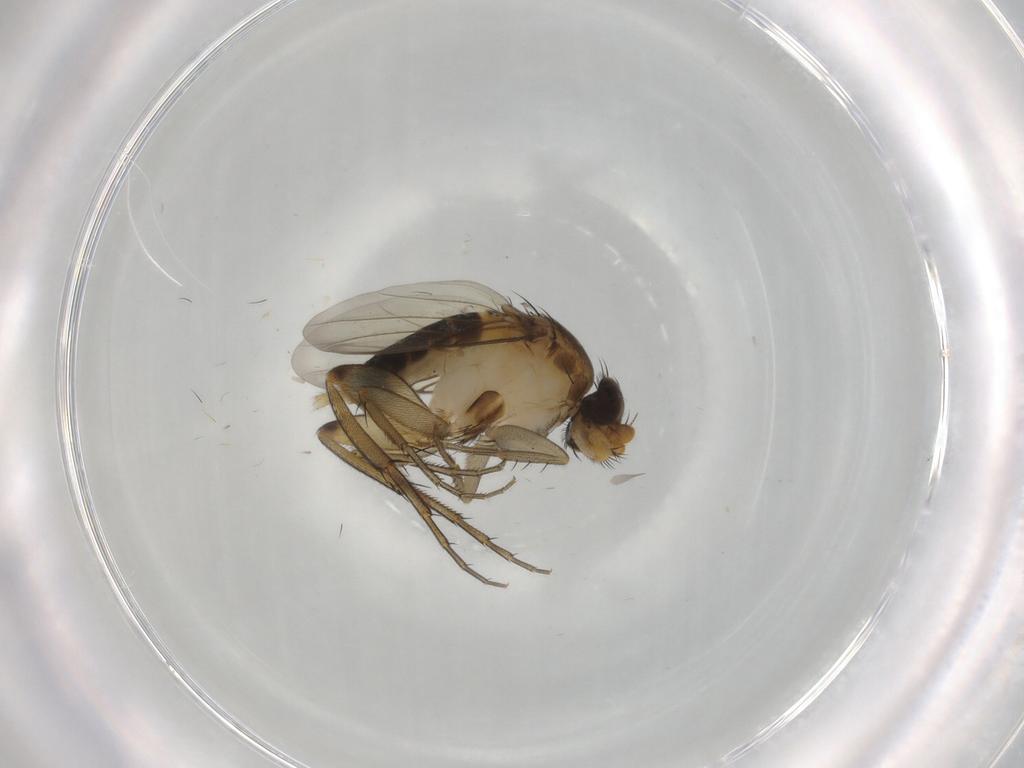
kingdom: Animalia
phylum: Arthropoda
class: Insecta
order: Diptera
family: Phoridae
